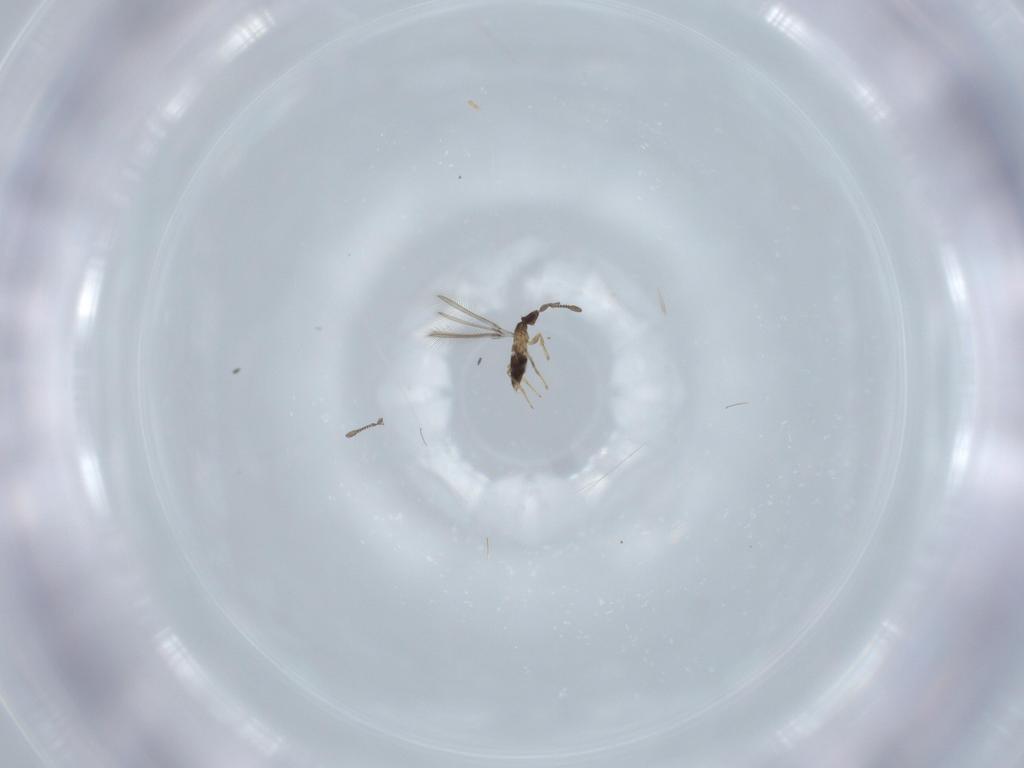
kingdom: Animalia
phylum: Arthropoda
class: Insecta
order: Hymenoptera
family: Mymaridae
